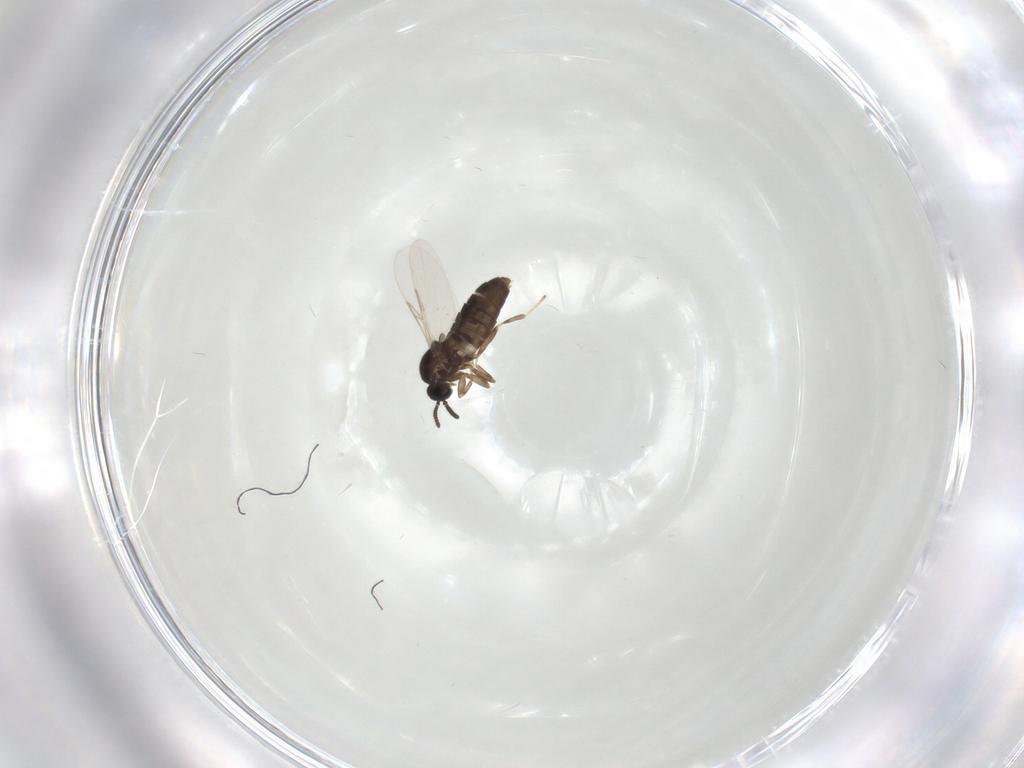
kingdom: Animalia
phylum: Arthropoda
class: Insecta
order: Diptera
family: Scatopsidae
